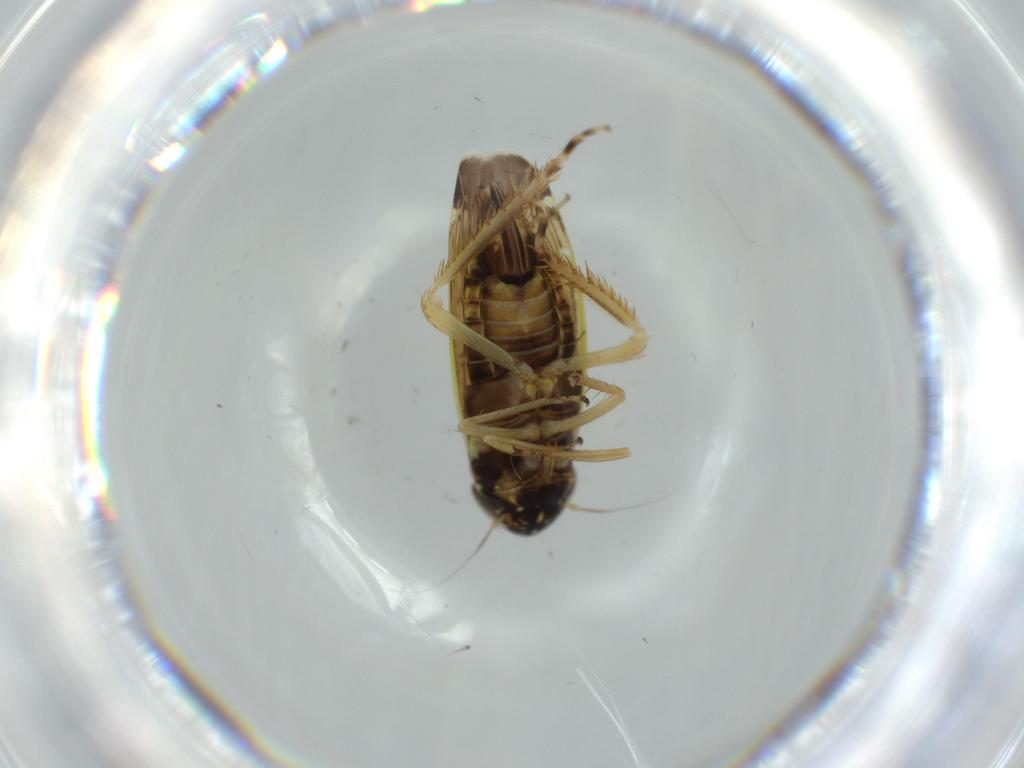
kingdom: Animalia
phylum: Arthropoda
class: Insecta
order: Hemiptera
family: Cicadellidae
